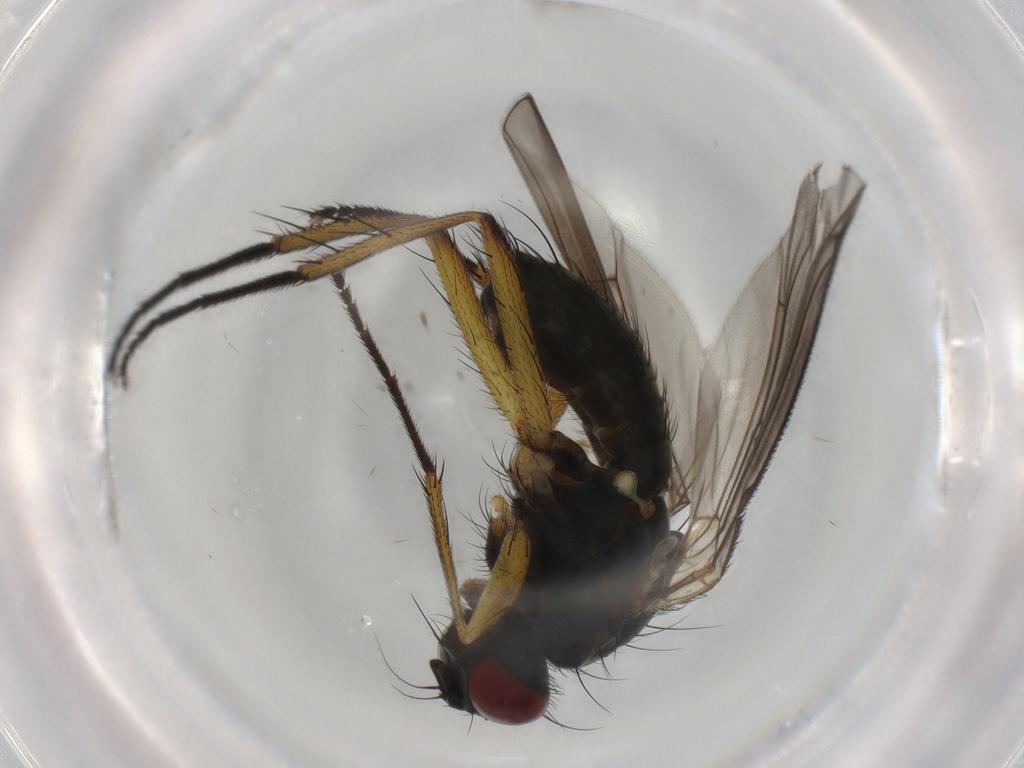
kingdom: Animalia
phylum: Arthropoda
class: Insecta
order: Diptera
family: Muscidae
